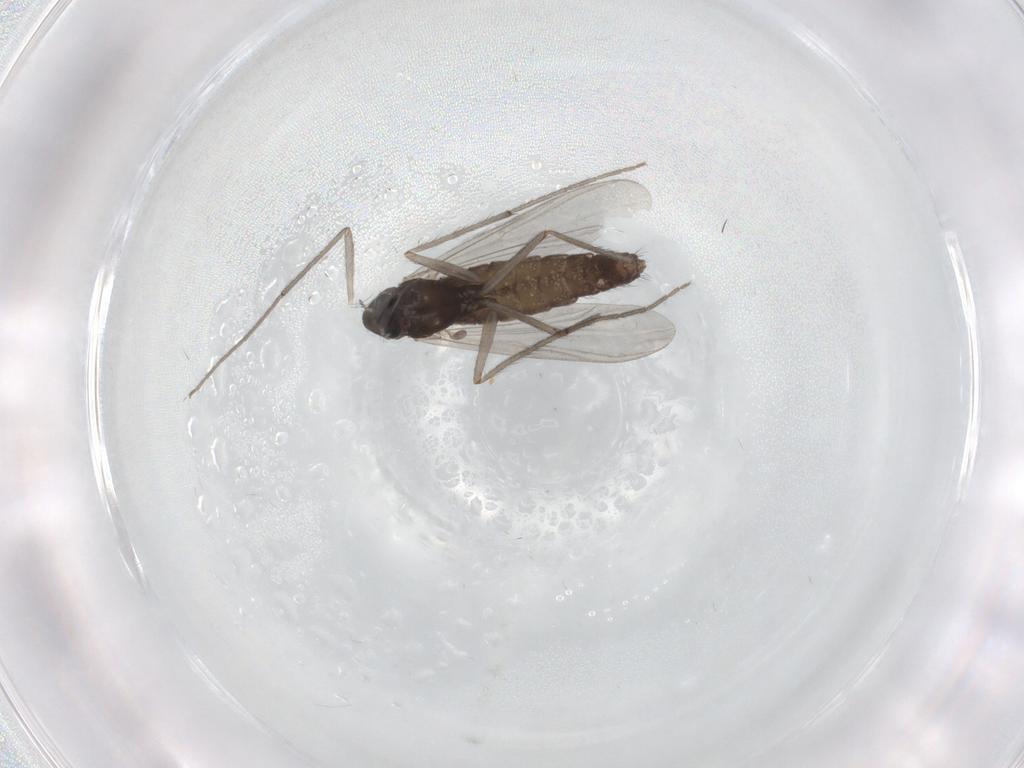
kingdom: Animalia
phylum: Arthropoda
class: Insecta
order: Diptera
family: Chironomidae
